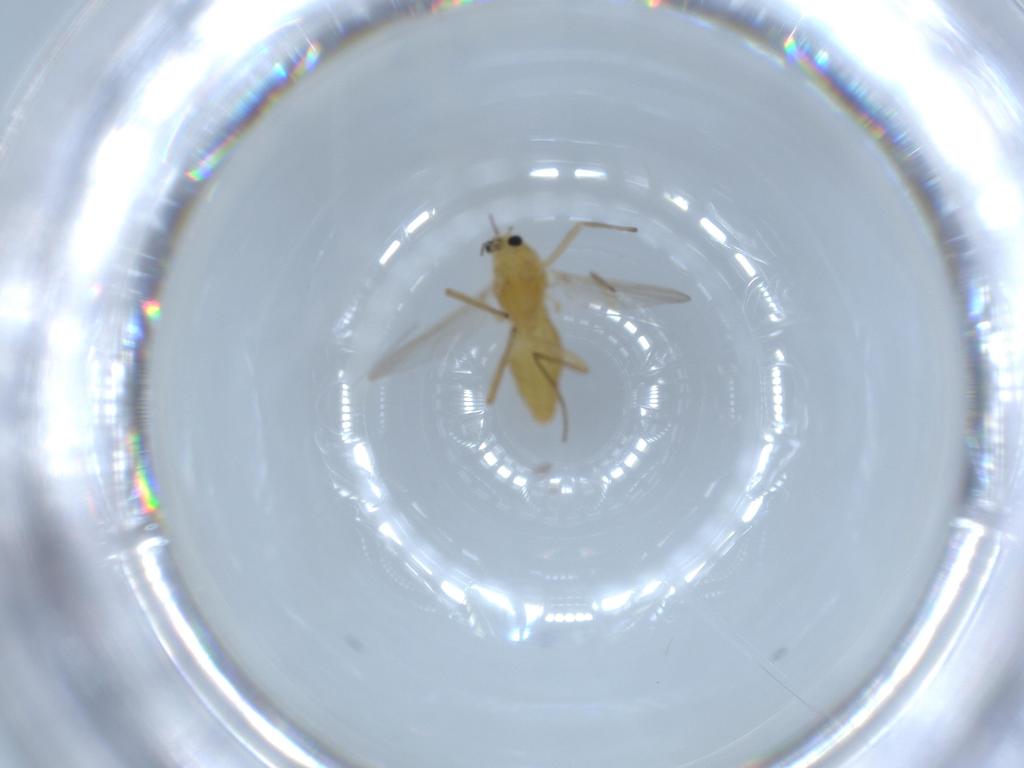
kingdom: Animalia
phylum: Arthropoda
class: Insecta
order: Diptera
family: Chironomidae
